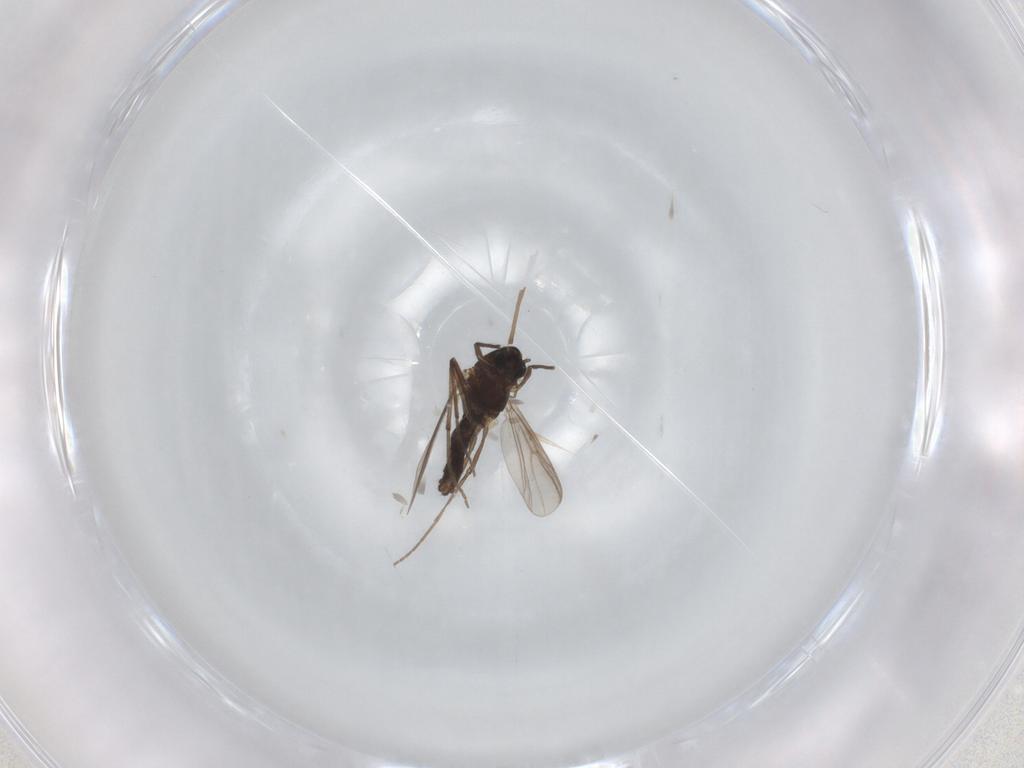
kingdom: Animalia
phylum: Arthropoda
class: Insecta
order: Diptera
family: Chironomidae
